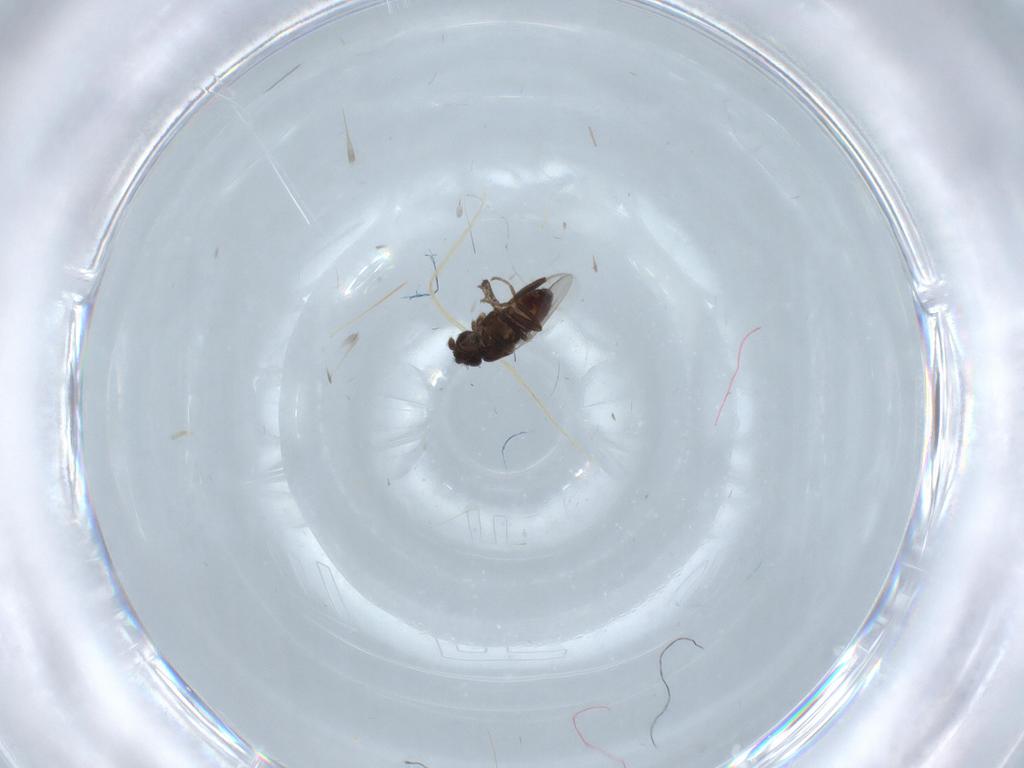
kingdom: Animalia
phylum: Arthropoda
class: Insecta
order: Diptera
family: Sphaeroceridae
